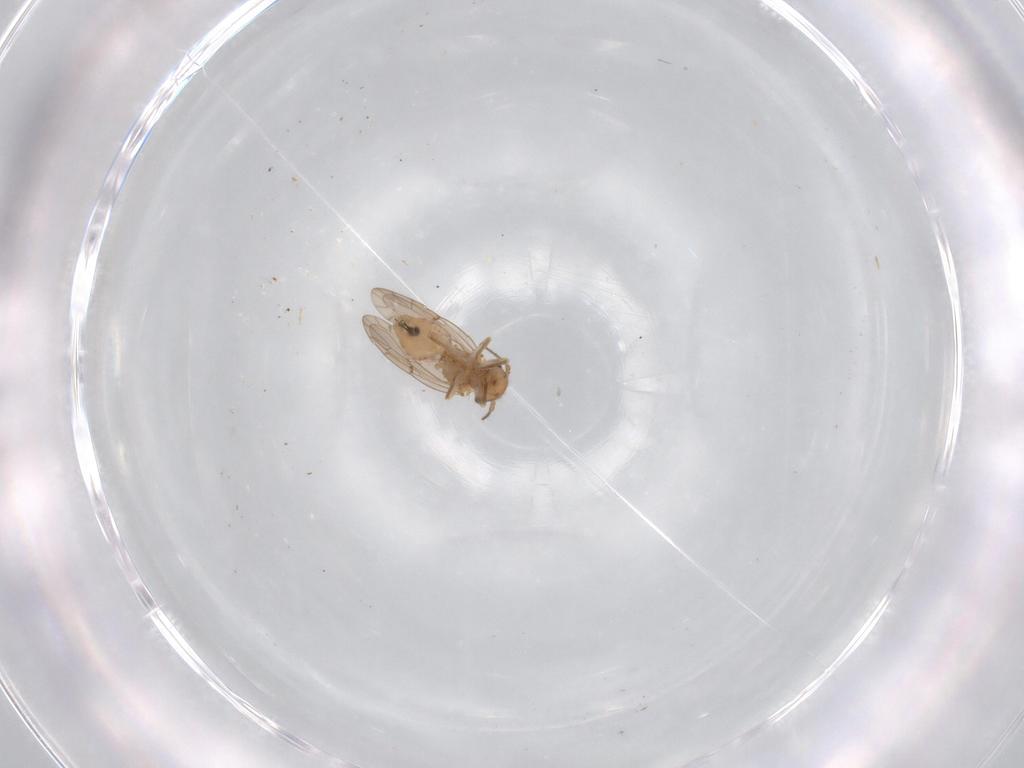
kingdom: Animalia
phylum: Arthropoda
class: Insecta
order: Psocodea
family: Ectopsocidae
